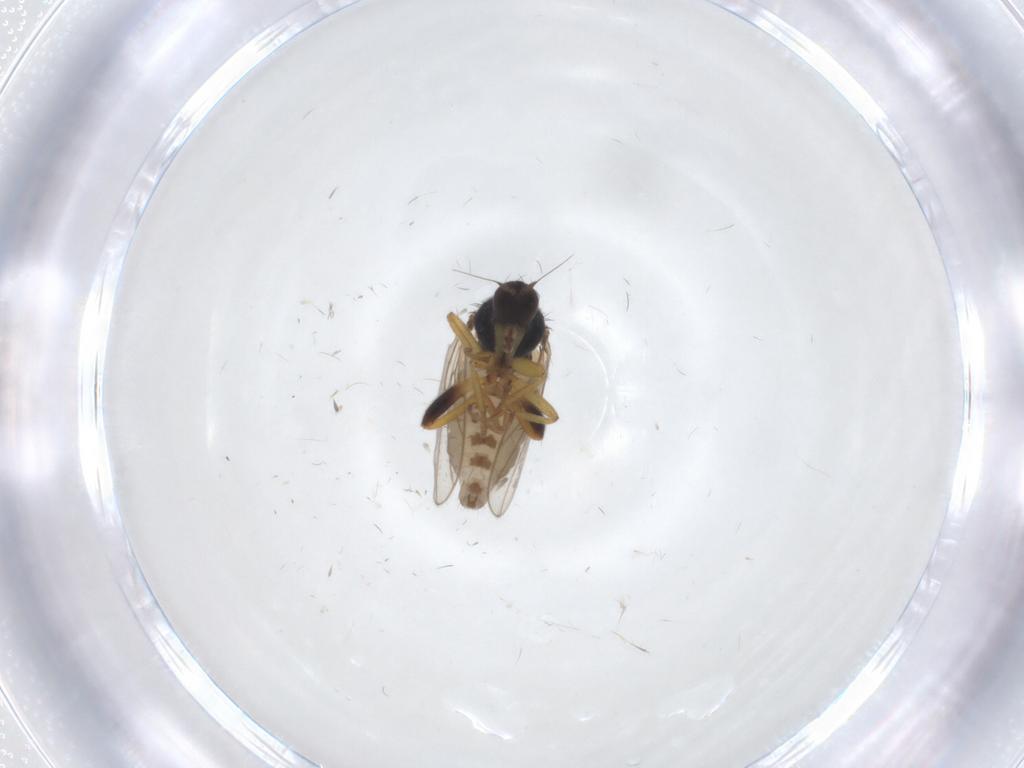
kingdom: Animalia
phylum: Arthropoda
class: Insecta
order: Diptera
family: Hybotidae
